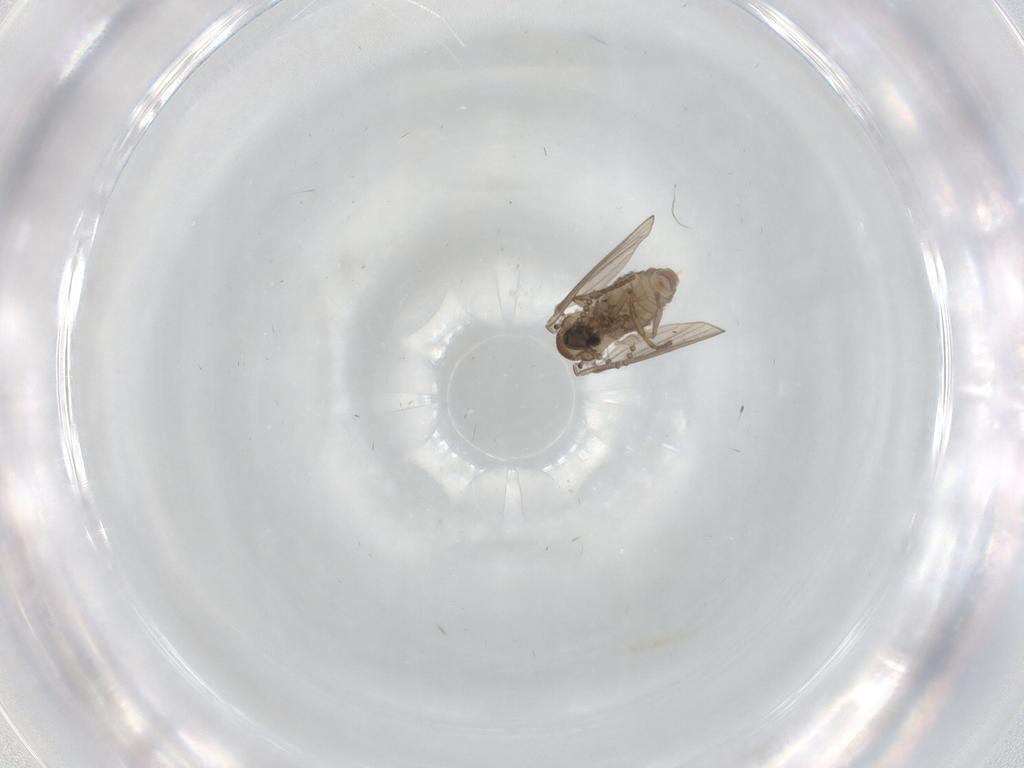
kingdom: Animalia
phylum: Arthropoda
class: Insecta
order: Diptera
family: Psychodidae
